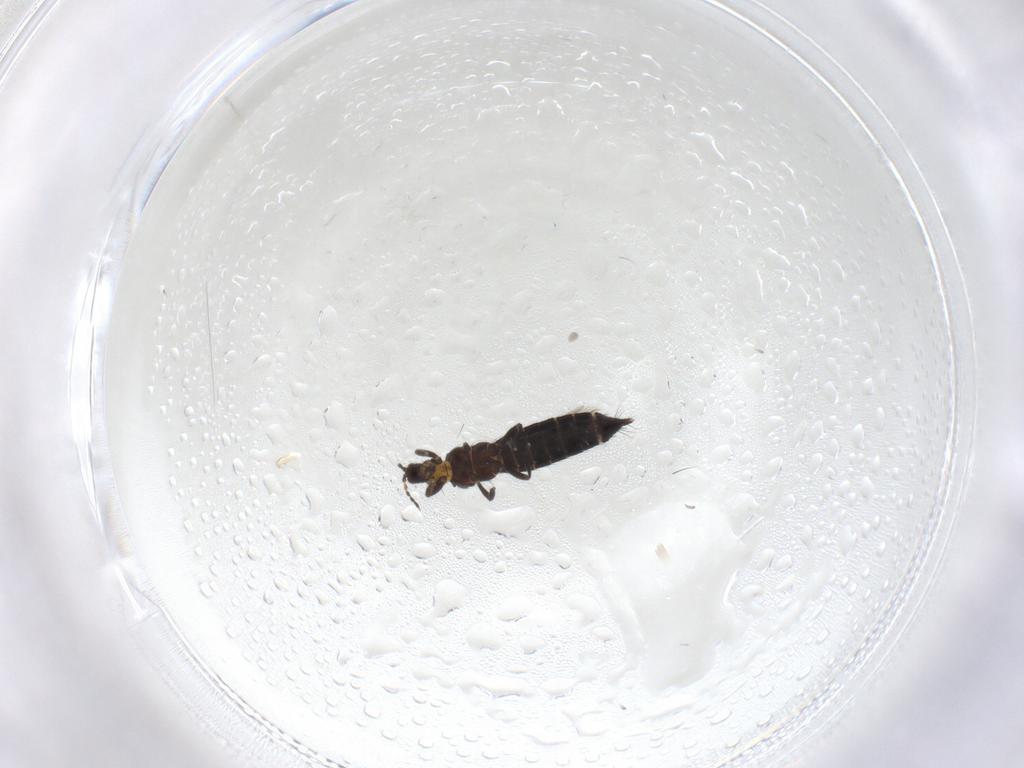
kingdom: Animalia
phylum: Arthropoda
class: Insecta
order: Thysanoptera
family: Thripidae
